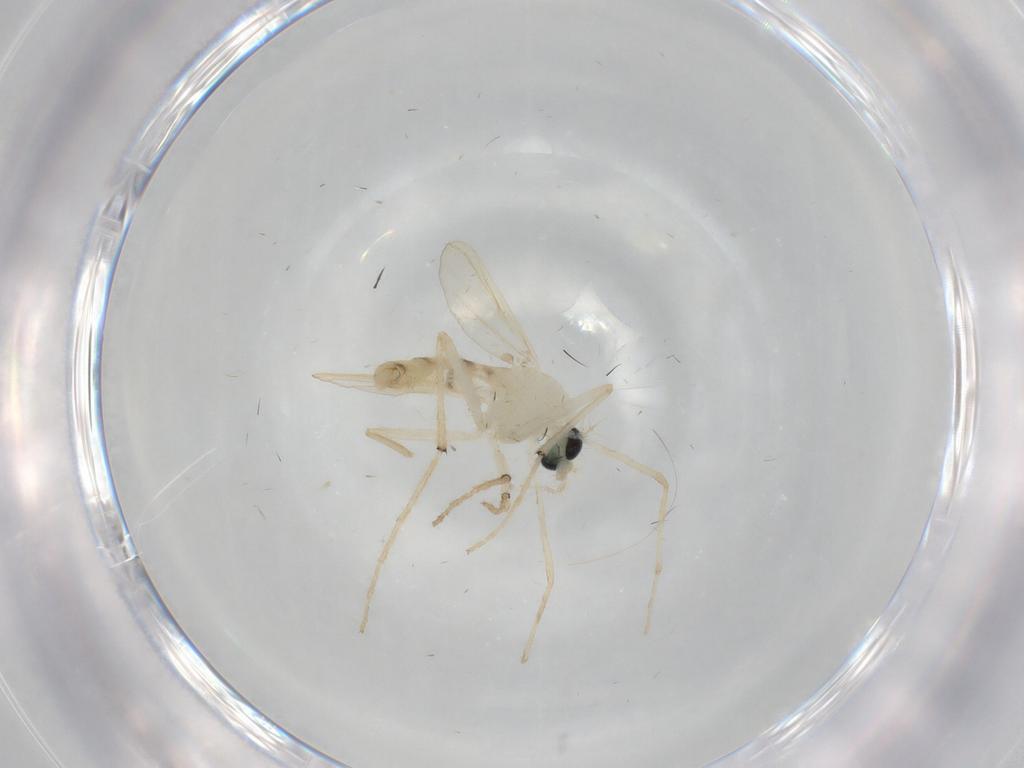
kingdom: Animalia
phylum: Arthropoda
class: Insecta
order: Diptera
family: Chironomidae
